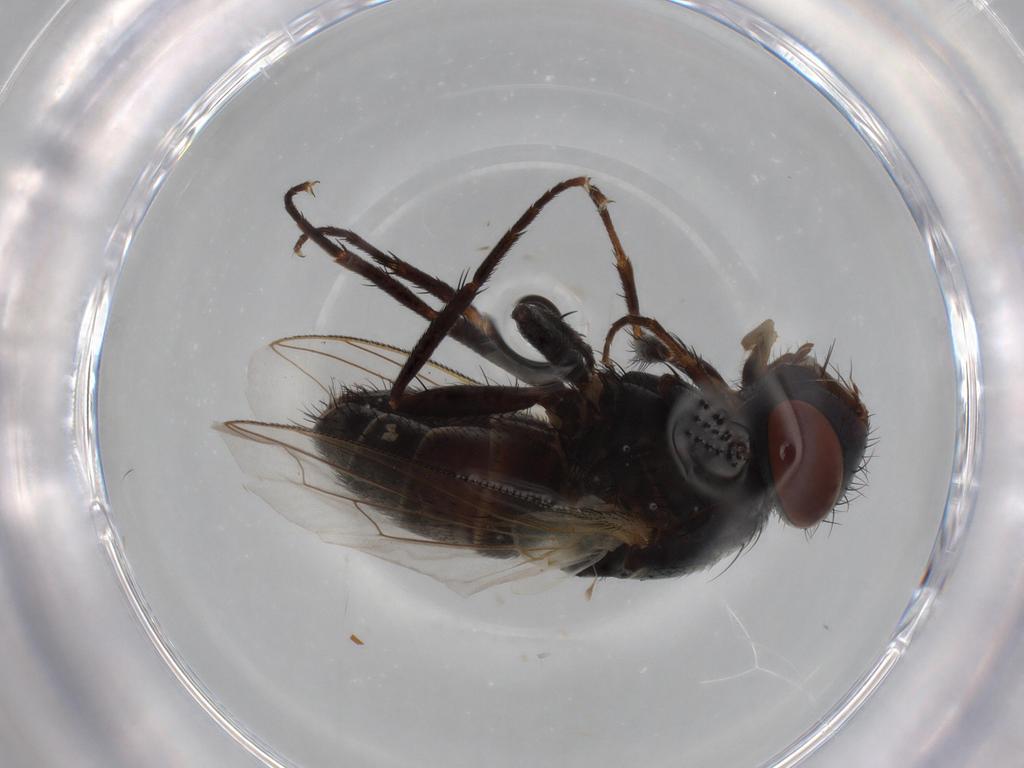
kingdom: Animalia
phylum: Arthropoda
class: Insecta
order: Diptera
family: Sarcophagidae
